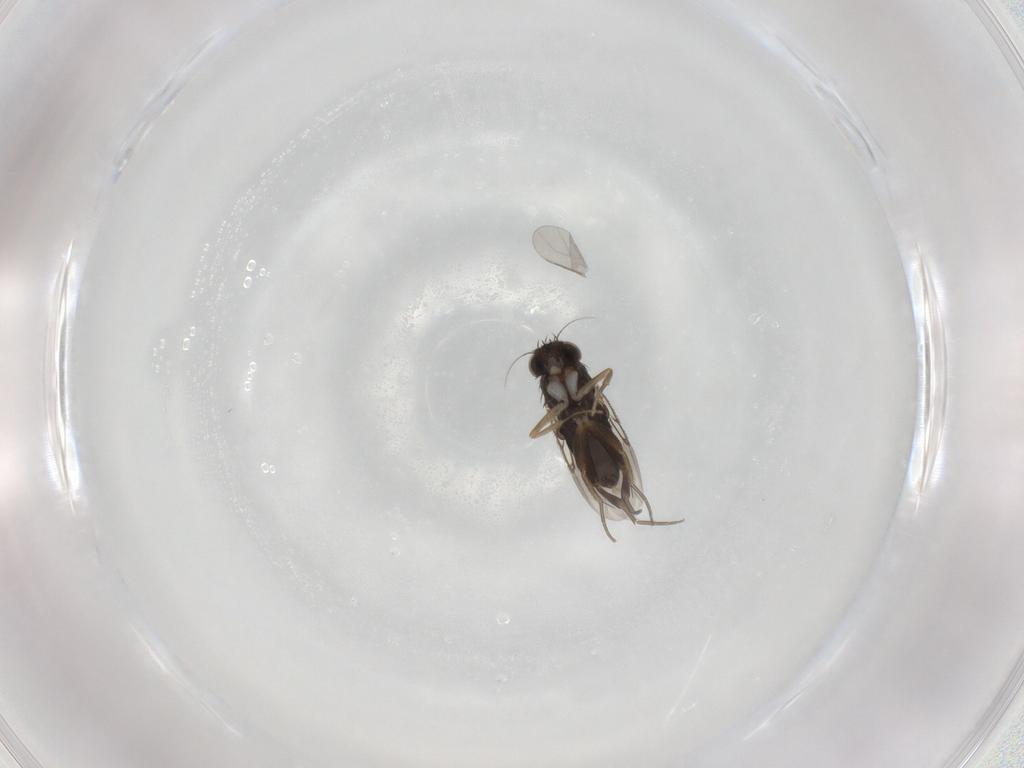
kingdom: Animalia
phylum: Arthropoda
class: Insecta
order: Diptera
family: Phoridae
